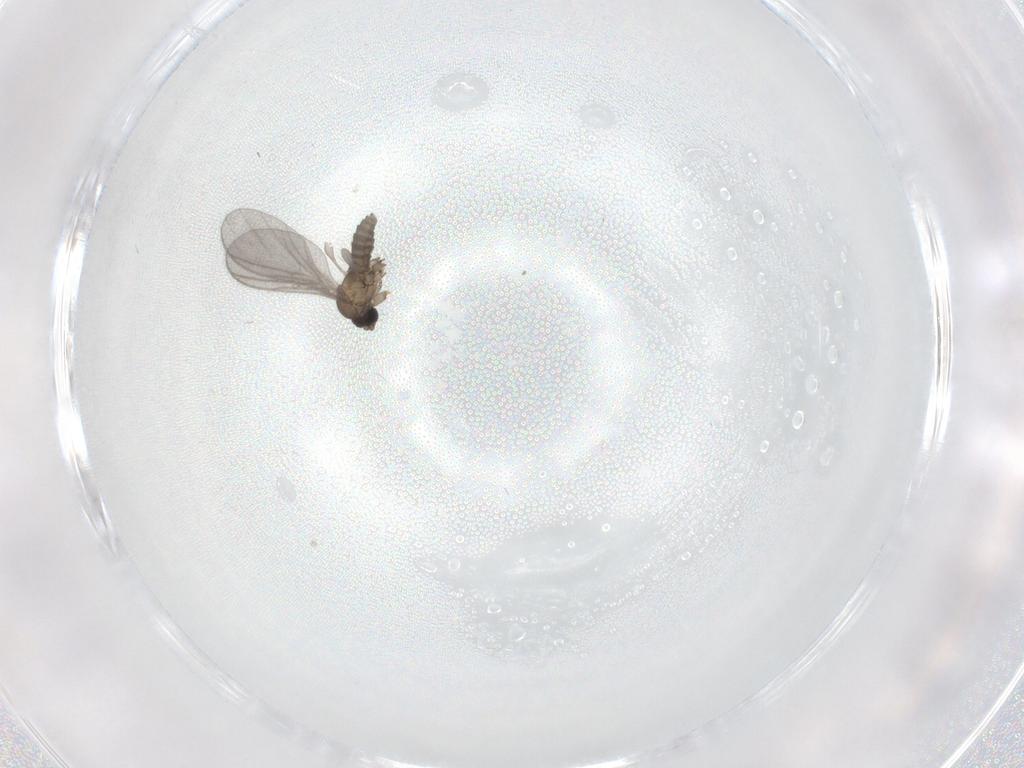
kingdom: Animalia
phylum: Arthropoda
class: Insecta
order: Diptera
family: Sciaridae
